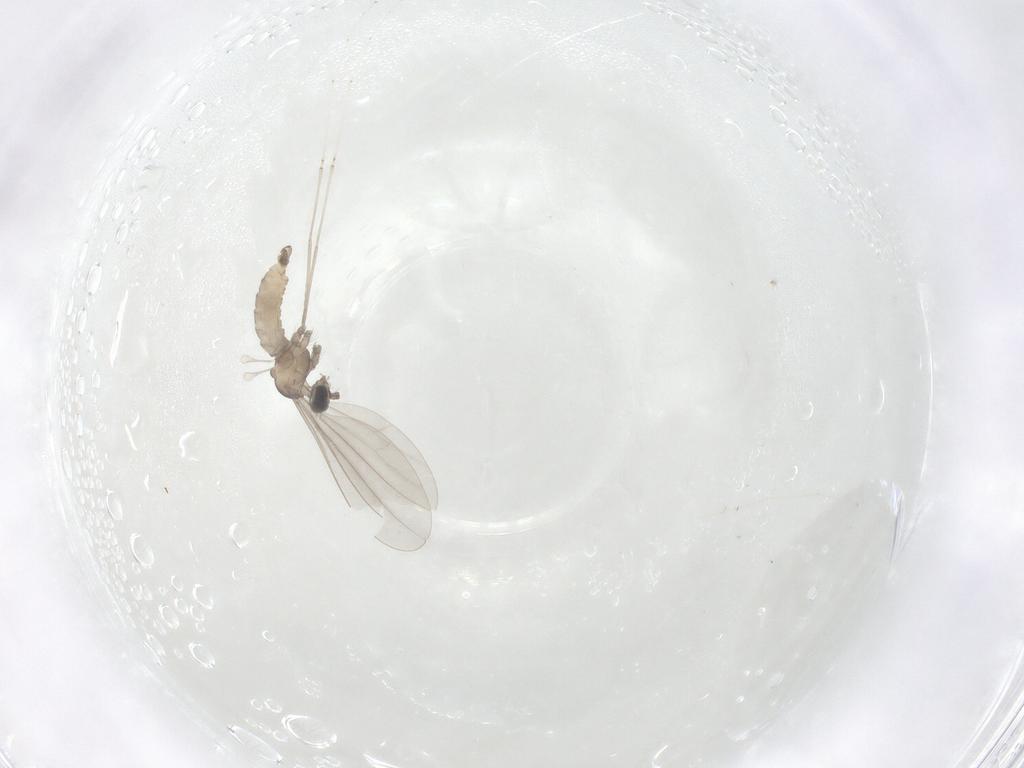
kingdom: Animalia
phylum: Arthropoda
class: Insecta
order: Diptera
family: Cecidomyiidae
